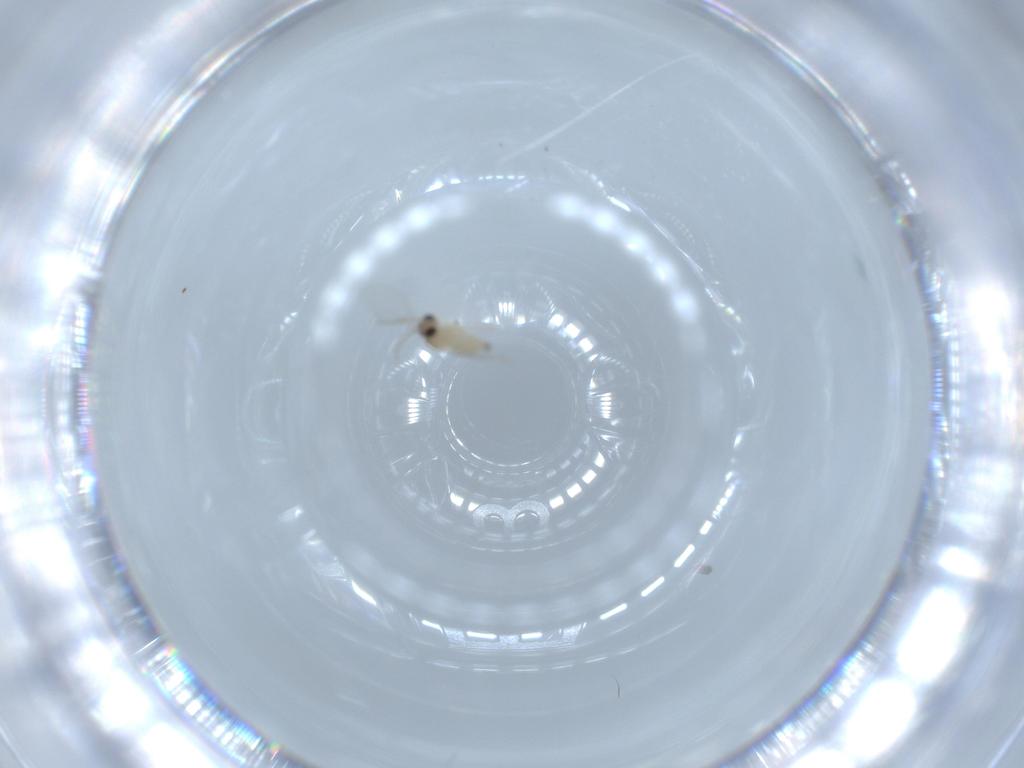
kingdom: Animalia
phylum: Arthropoda
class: Insecta
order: Diptera
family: Cecidomyiidae
